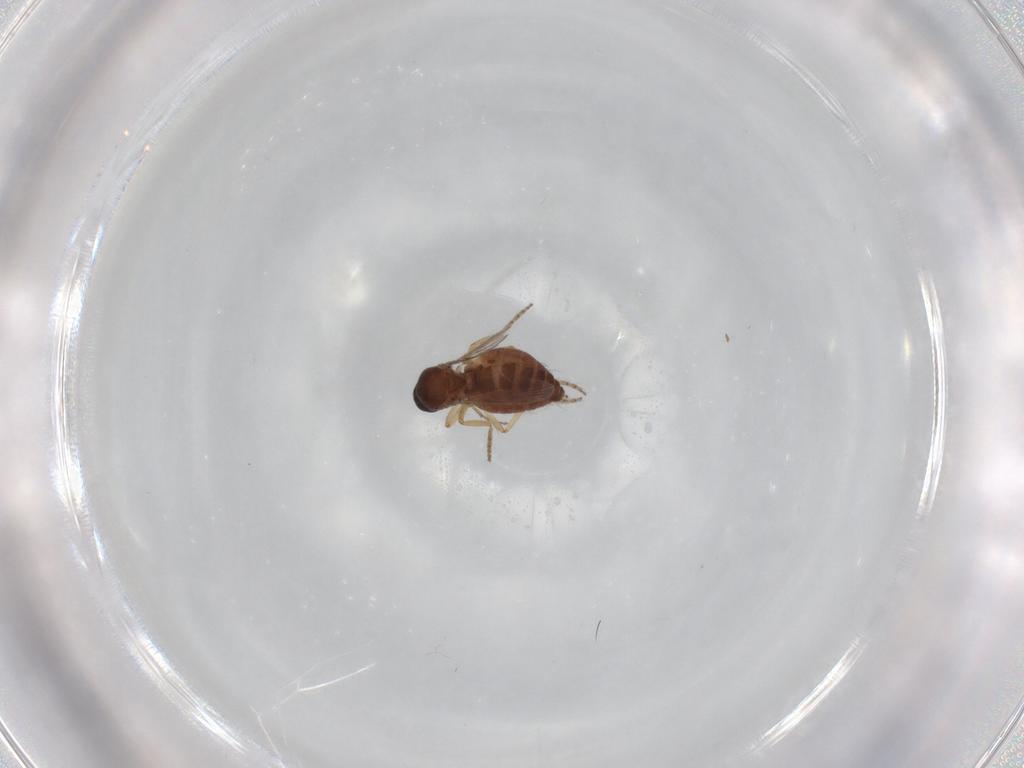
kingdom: Animalia
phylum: Arthropoda
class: Insecta
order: Diptera
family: Ceratopogonidae
